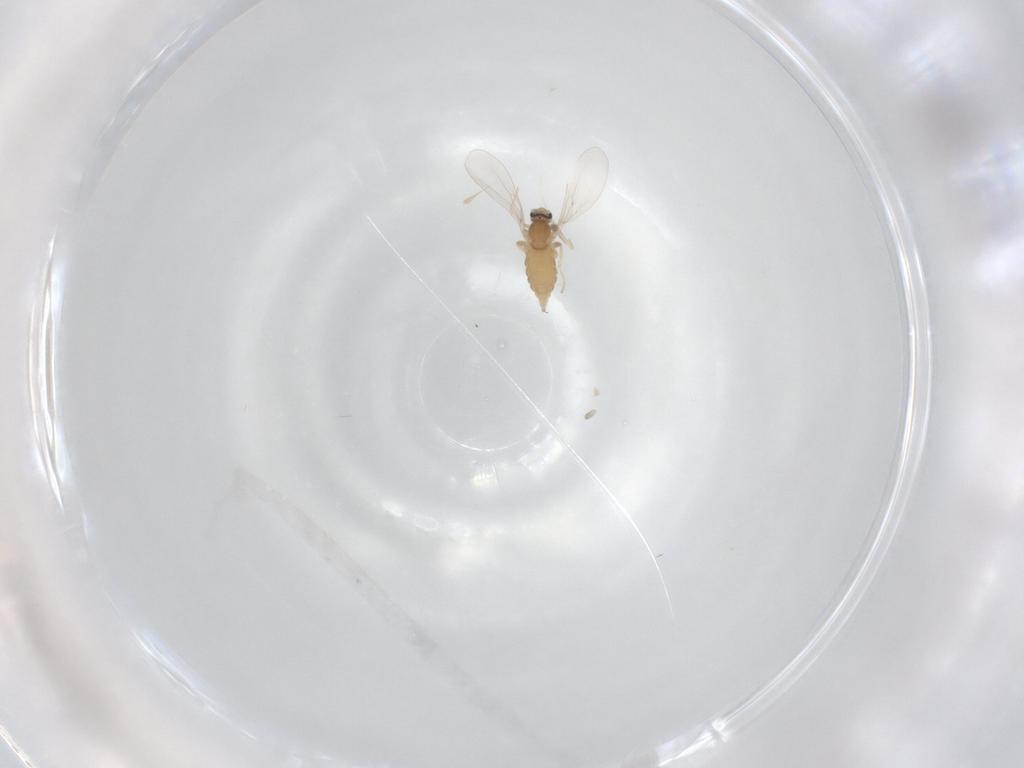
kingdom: Animalia
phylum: Arthropoda
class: Insecta
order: Diptera
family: Cecidomyiidae
